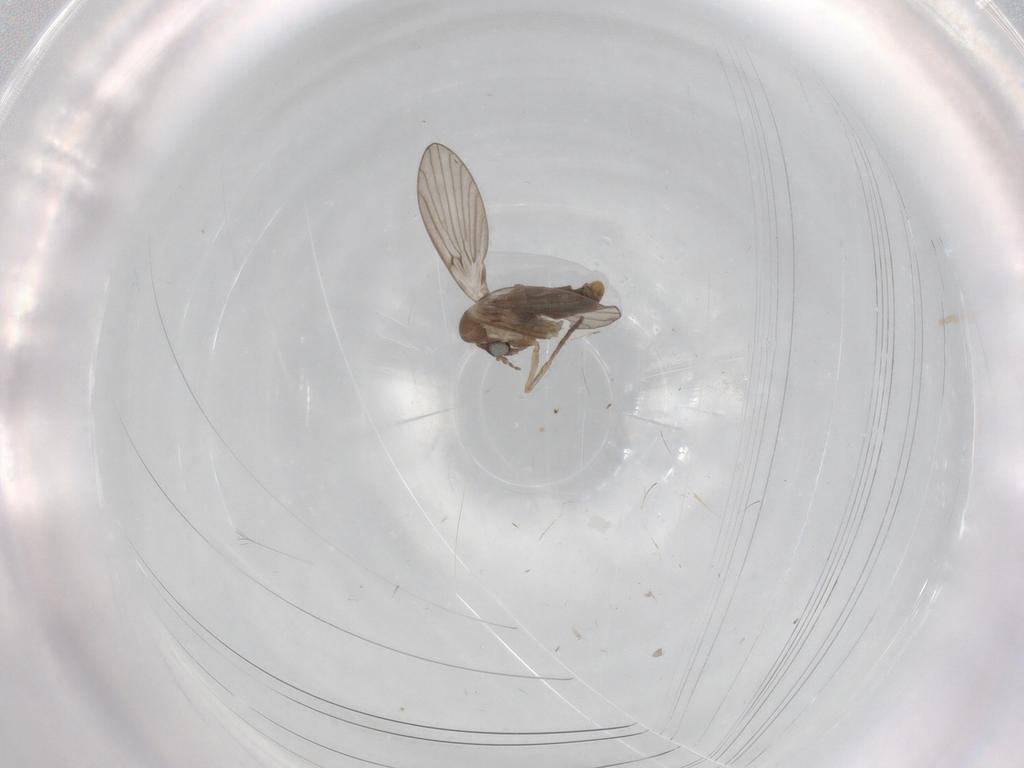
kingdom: Animalia
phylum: Arthropoda
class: Insecta
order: Diptera
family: Psychodidae
